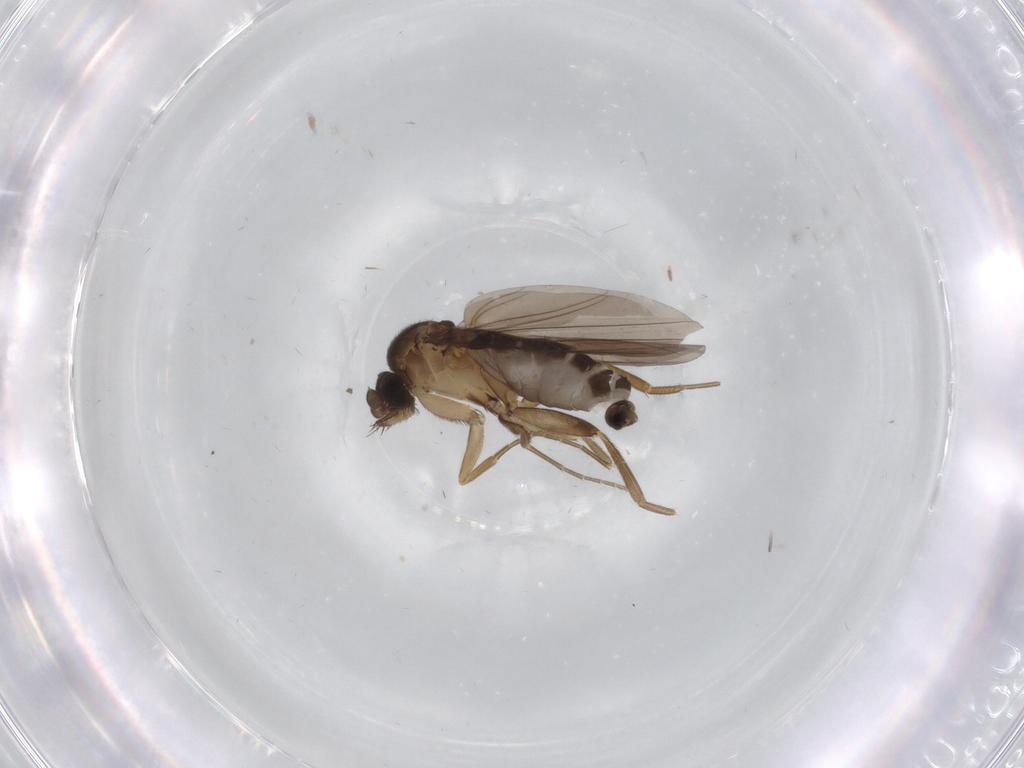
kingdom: Animalia
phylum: Arthropoda
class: Insecta
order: Diptera
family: Phoridae
